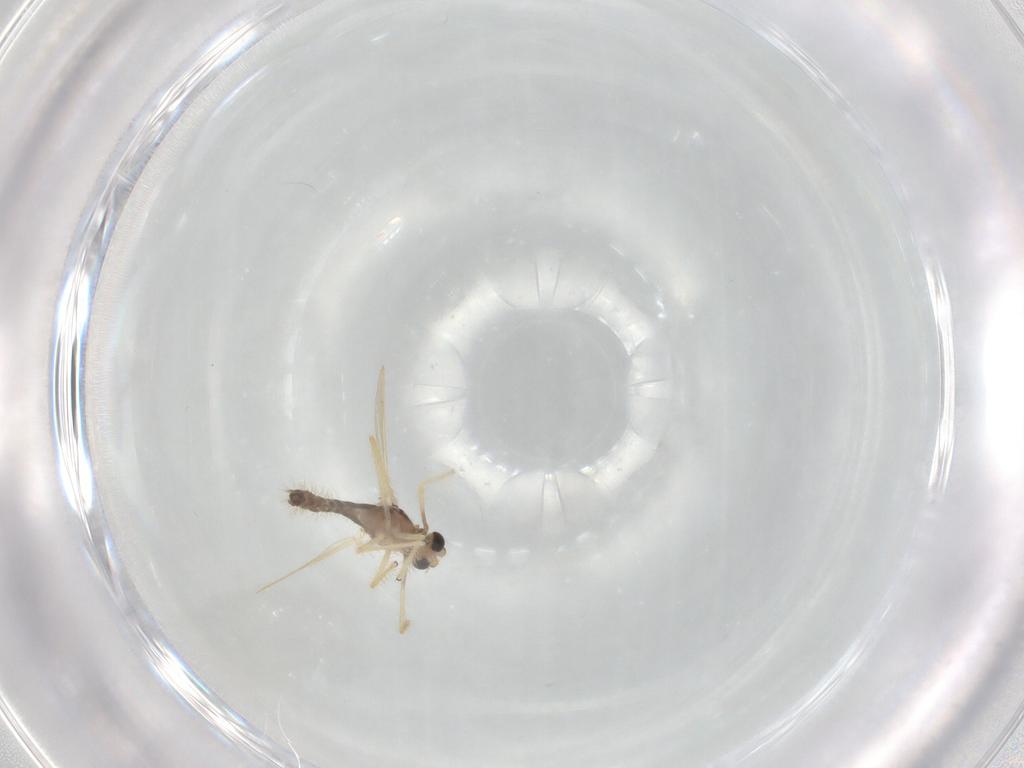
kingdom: Animalia
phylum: Arthropoda
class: Insecta
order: Diptera
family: Chironomidae
